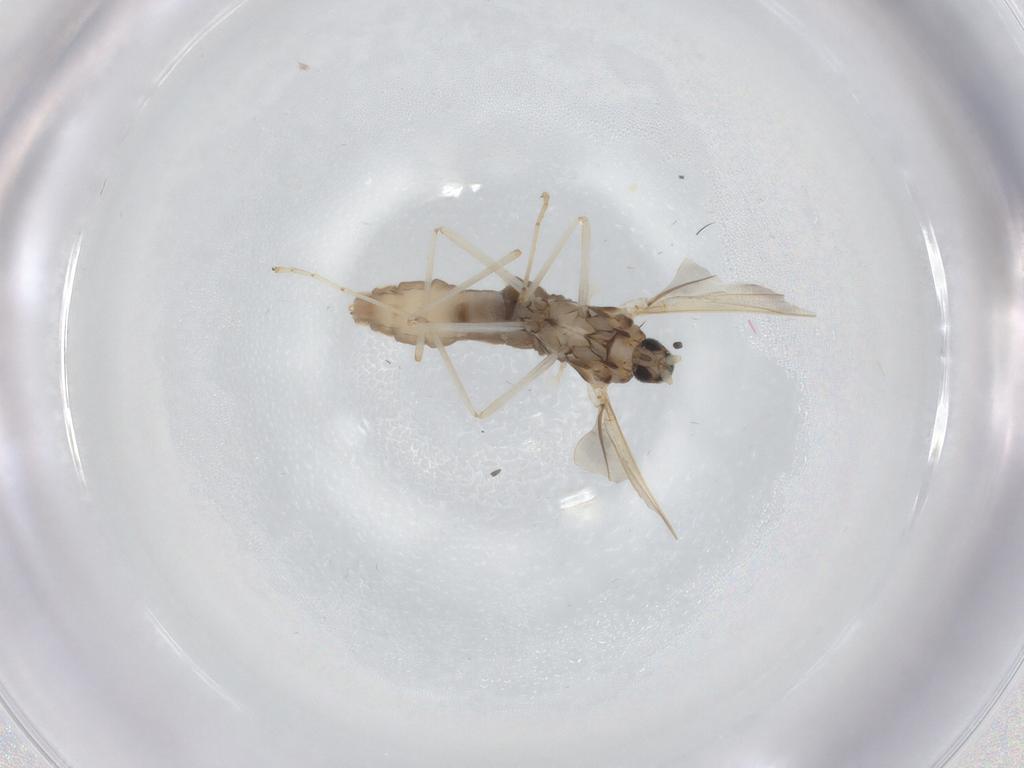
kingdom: Animalia
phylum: Arthropoda
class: Insecta
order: Diptera
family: Cecidomyiidae
